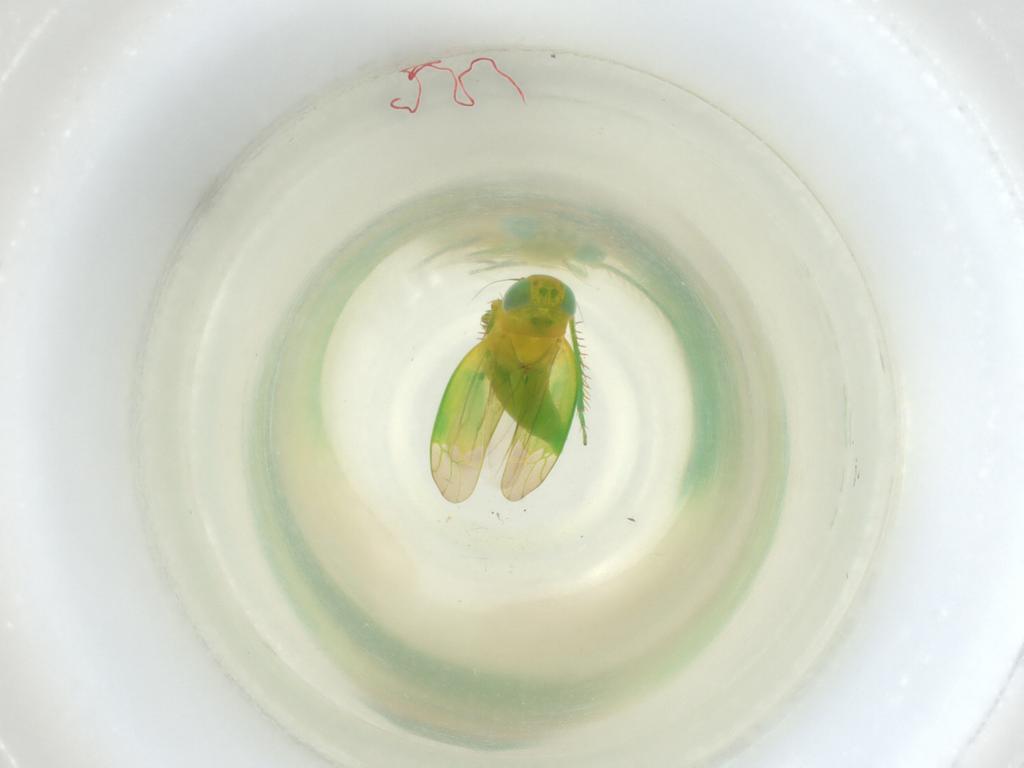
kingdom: Animalia
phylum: Arthropoda
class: Insecta
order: Hemiptera
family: Cicadellidae
